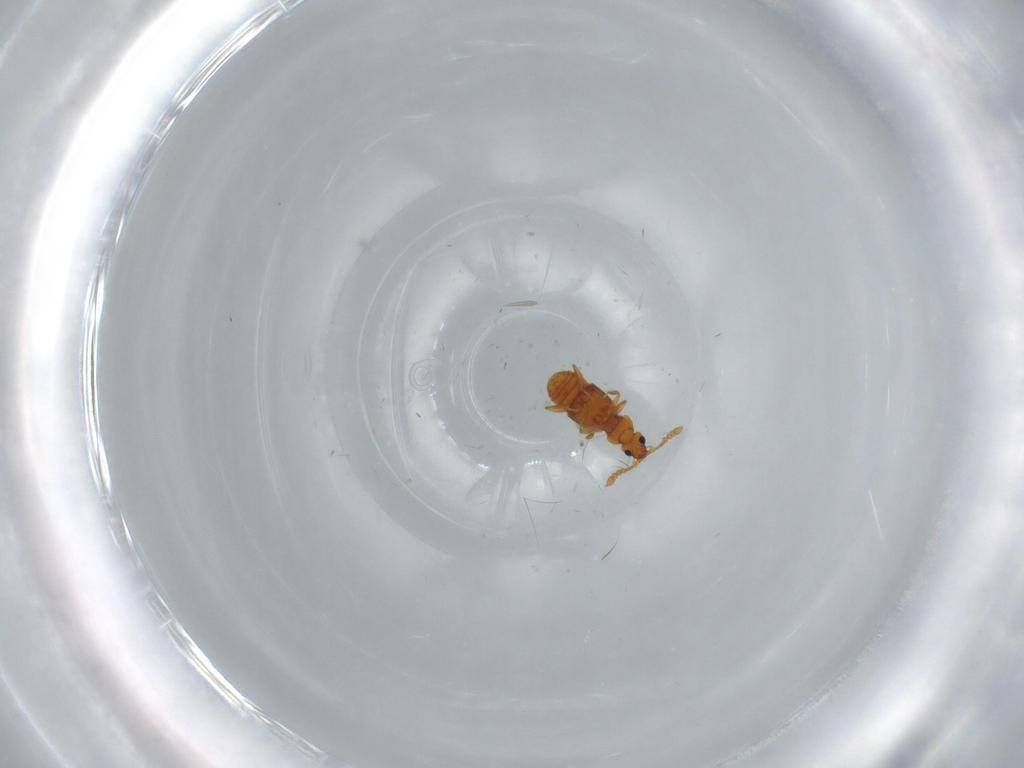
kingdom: Animalia
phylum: Arthropoda
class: Insecta
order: Coleoptera
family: Staphylinidae
